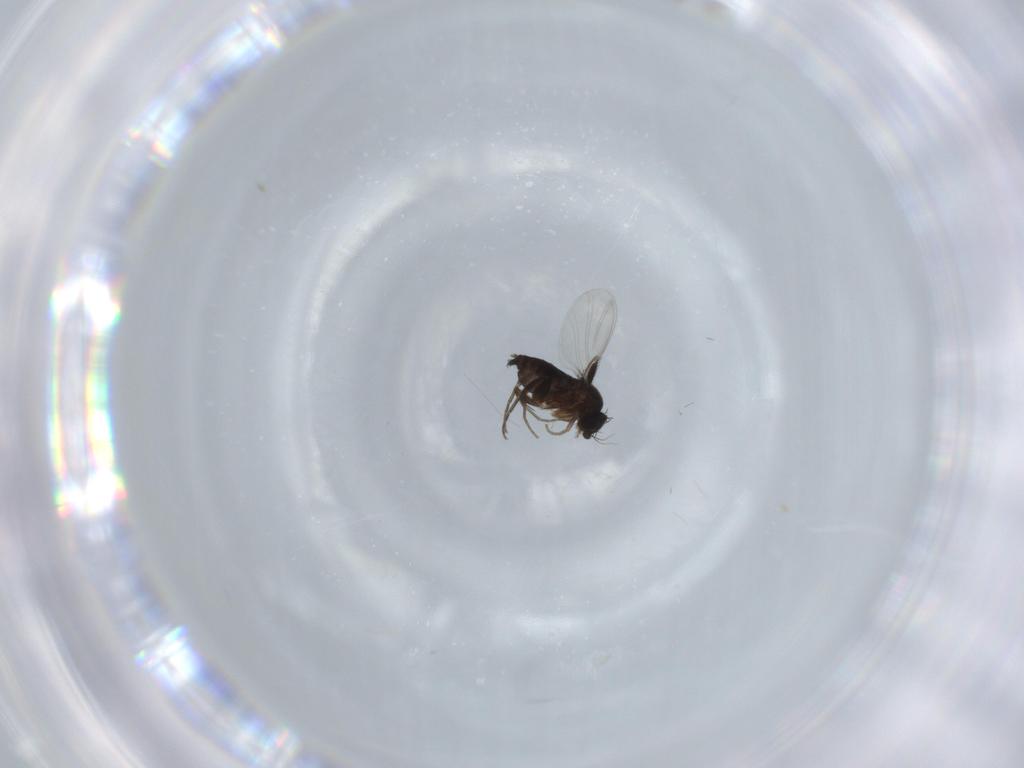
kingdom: Animalia
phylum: Arthropoda
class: Insecta
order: Diptera
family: Phoridae
